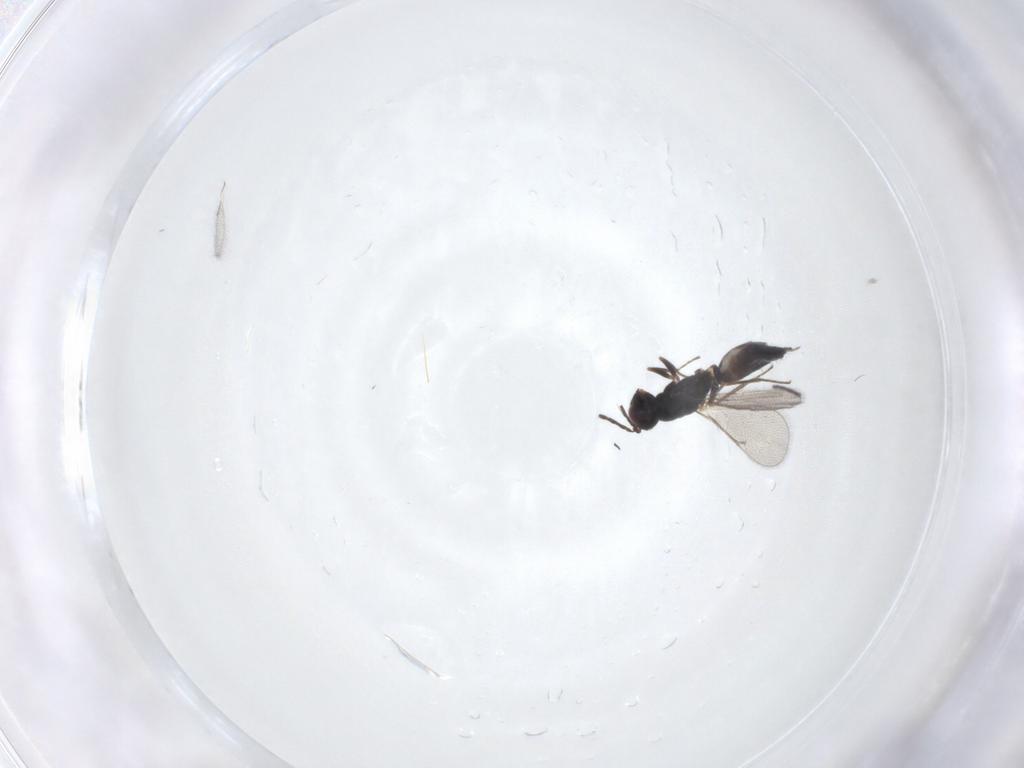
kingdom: Animalia
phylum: Arthropoda
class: Insecta
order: Hymenoptera
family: Eulophidae
